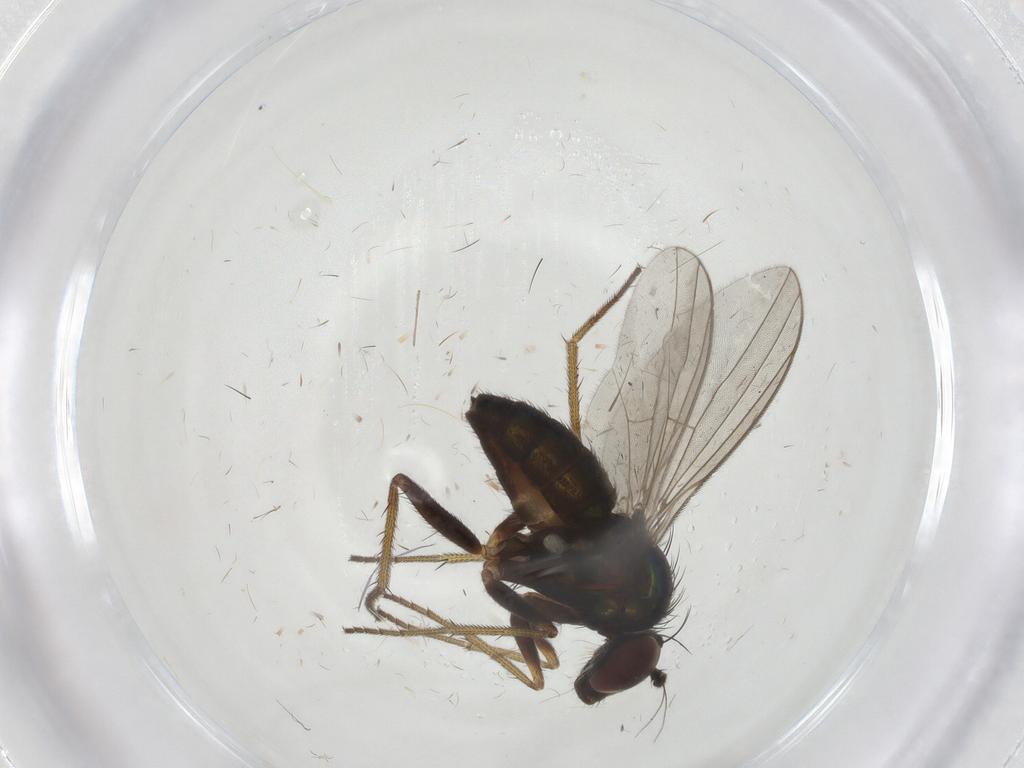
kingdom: Animalia
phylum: Arthropoda
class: Insecta
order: Diptera
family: Dolichopodidae
